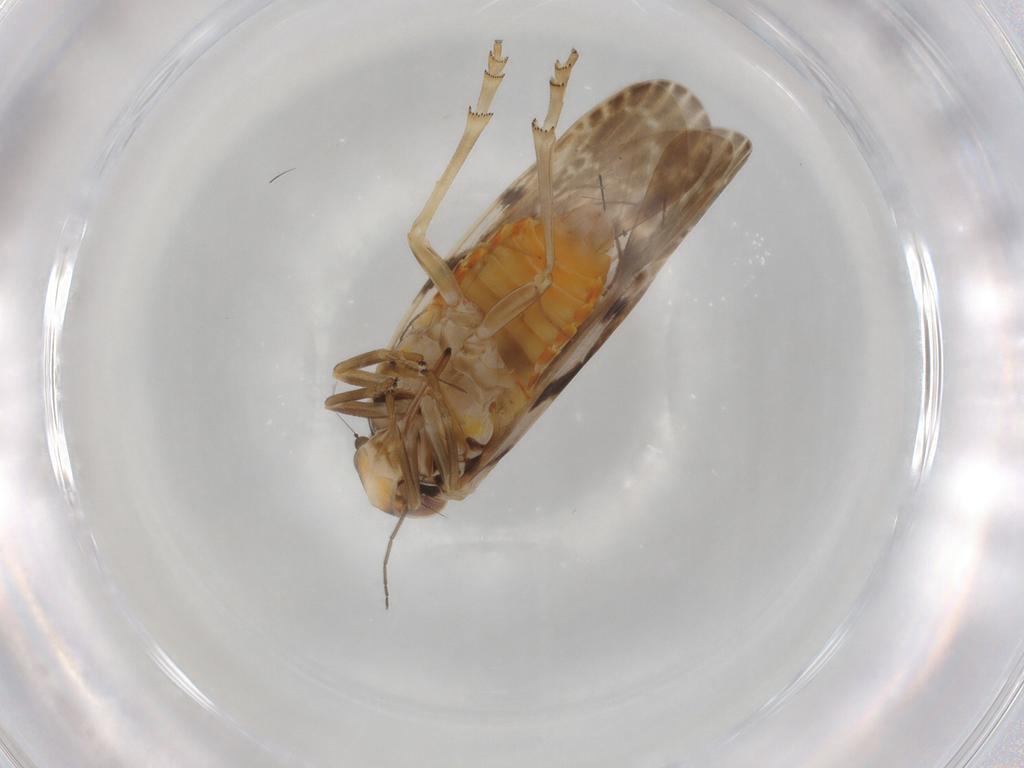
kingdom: Animalia
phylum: Arthropoda
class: Insecta
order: Hemiptera
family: Achilidae
